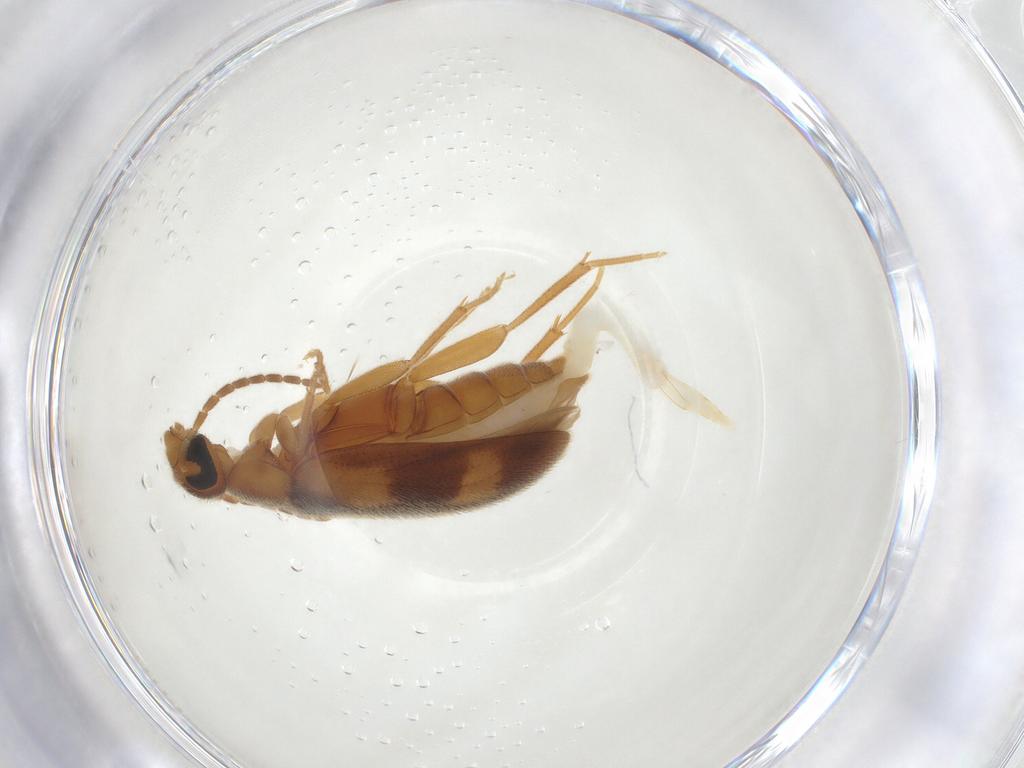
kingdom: Animalia
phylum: Arthropoda
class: Insecta
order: Coleoptera
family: Scraptiidae
